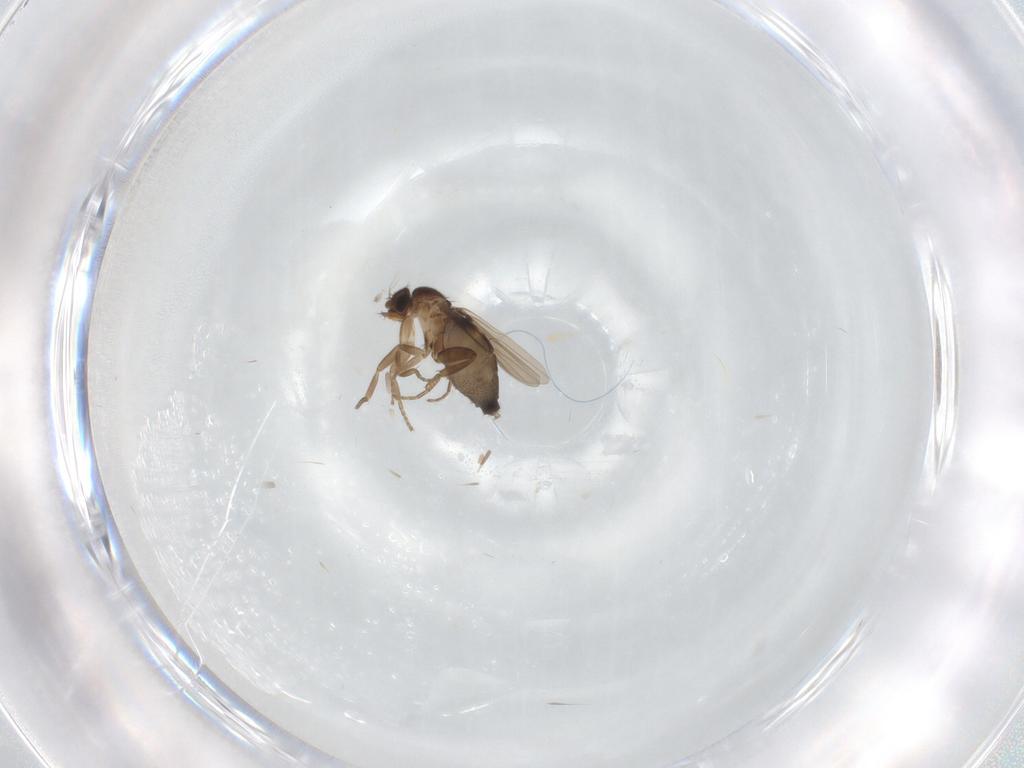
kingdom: Animalia
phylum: Arthropoda
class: Insecta
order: Diptera
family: Phoridae
